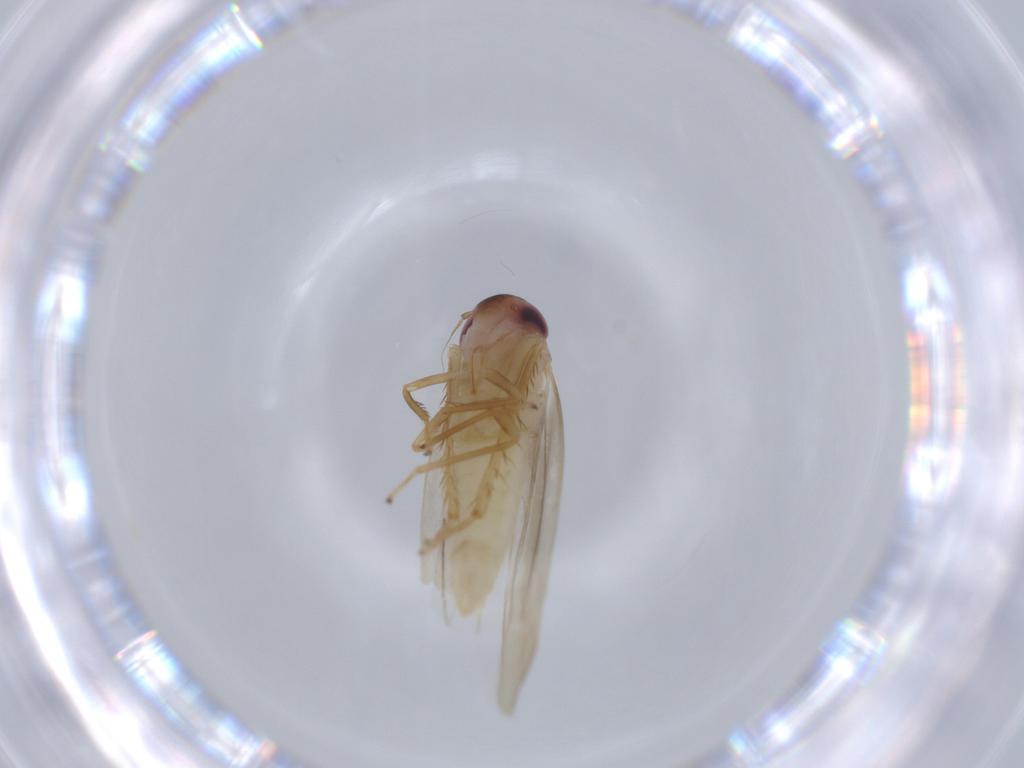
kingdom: Animalia
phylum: Arthropoda
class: Insecta
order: Hemiptera
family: Cicadellidae
